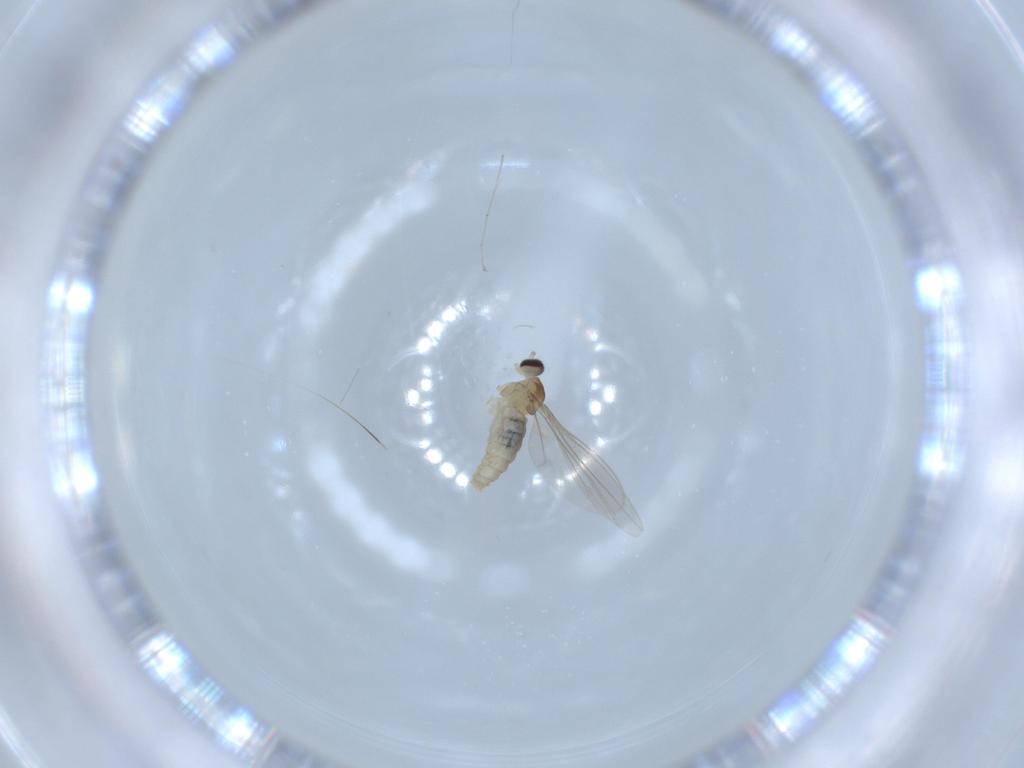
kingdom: Animalia
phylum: Arthropoda
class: Insecta
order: Diptera
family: Cecidomyiidae
